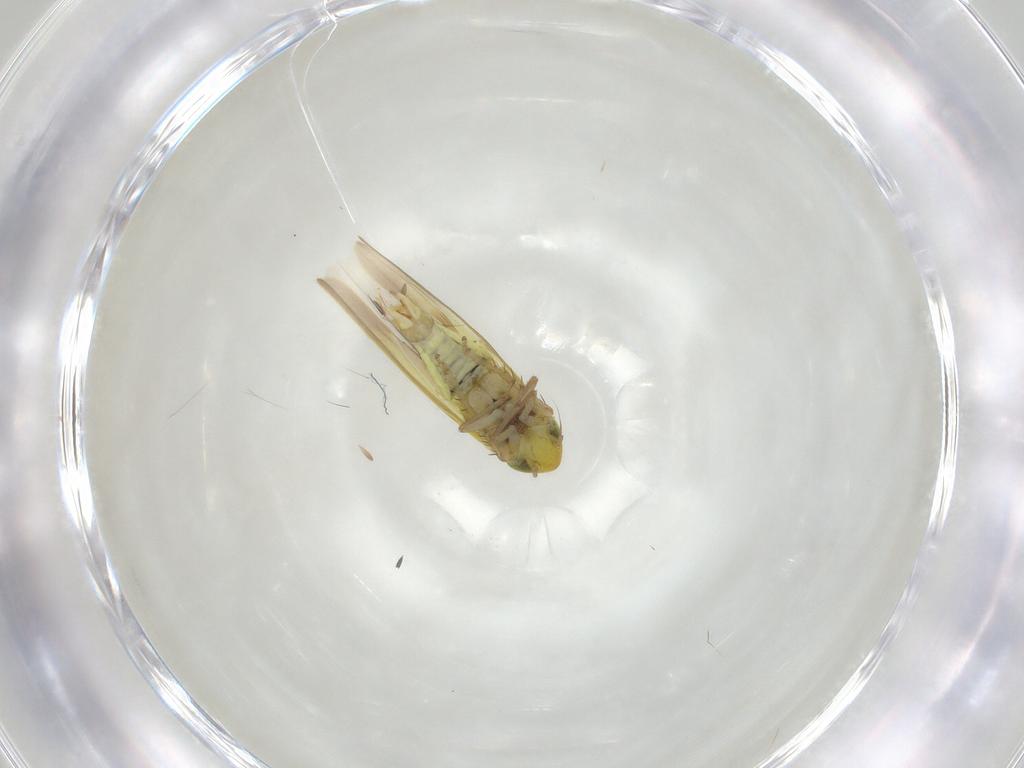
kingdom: Animalia
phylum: Arthropoda
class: Insecta
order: Hemiptera
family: Cicadellidae
